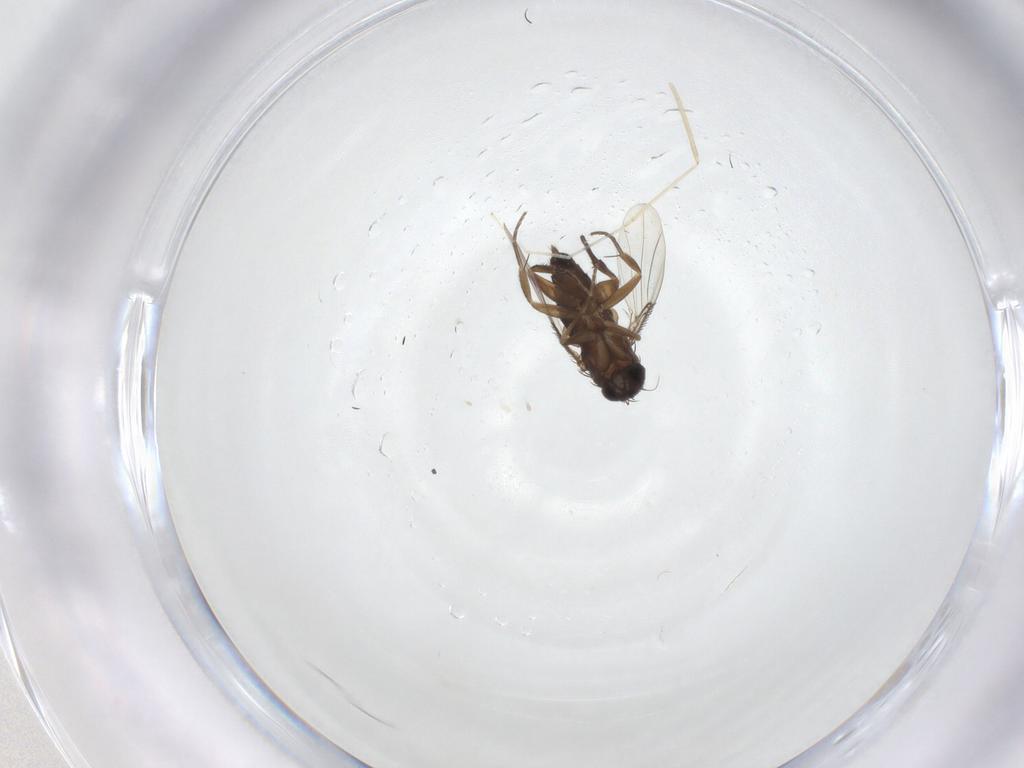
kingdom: Animalia
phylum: Arthropoda
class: Insecta
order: Diptera
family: Phoridae
